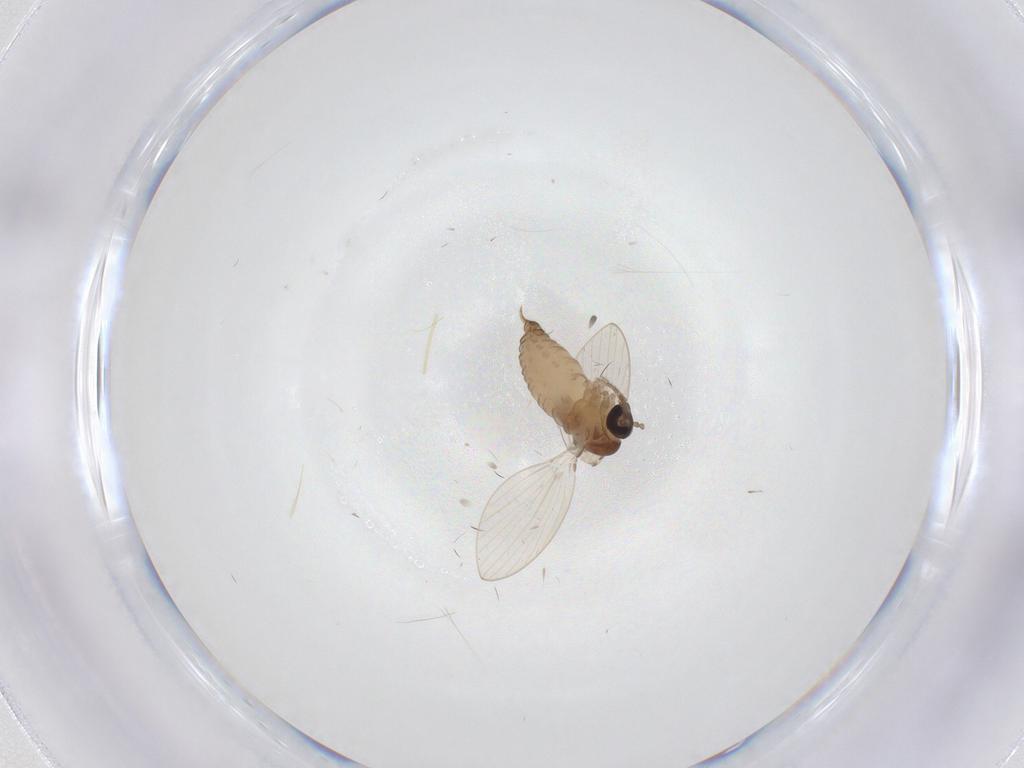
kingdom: Animalia
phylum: Arthropoda
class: Insecta
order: Diptera
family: Psychodidae
